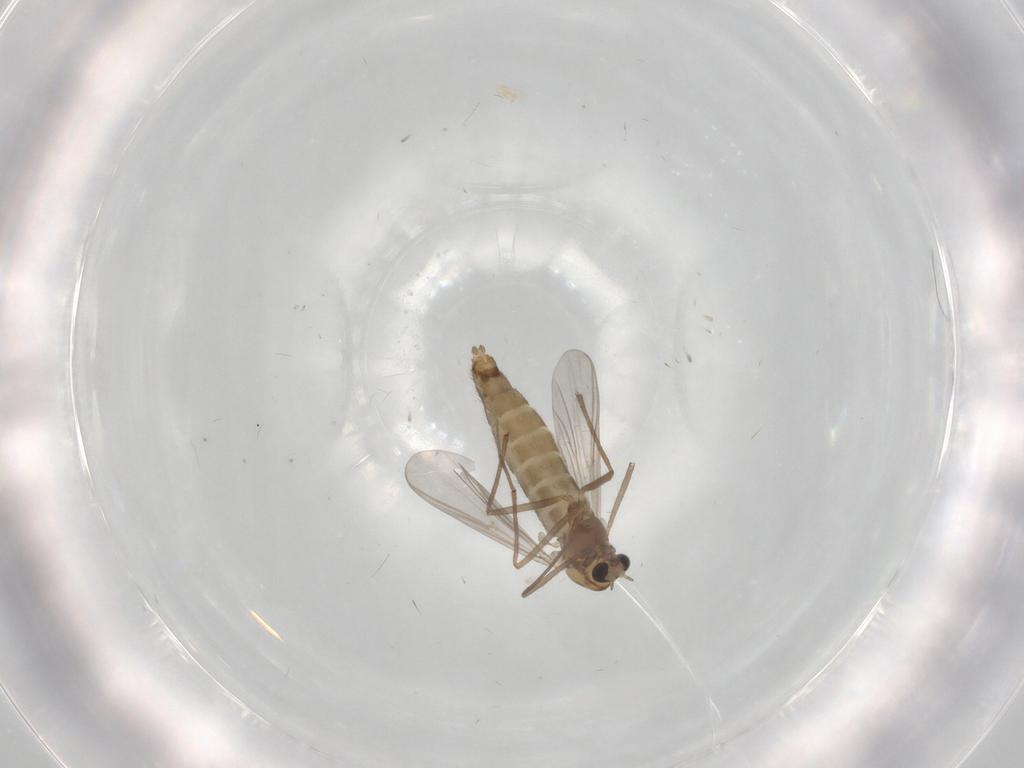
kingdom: Animalia
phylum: Arthropoda
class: Insecta
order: Diptera
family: Chironomidae
